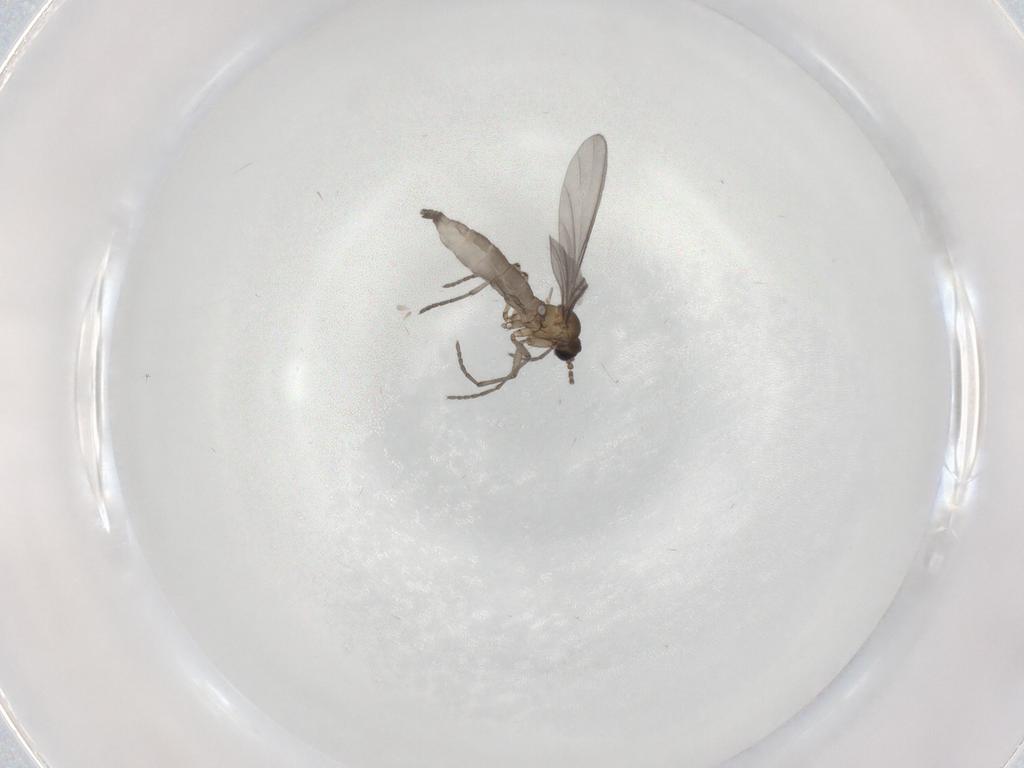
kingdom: Animalia
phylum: Arthropoda
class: Insecta
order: Diptera
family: Sciaridae
